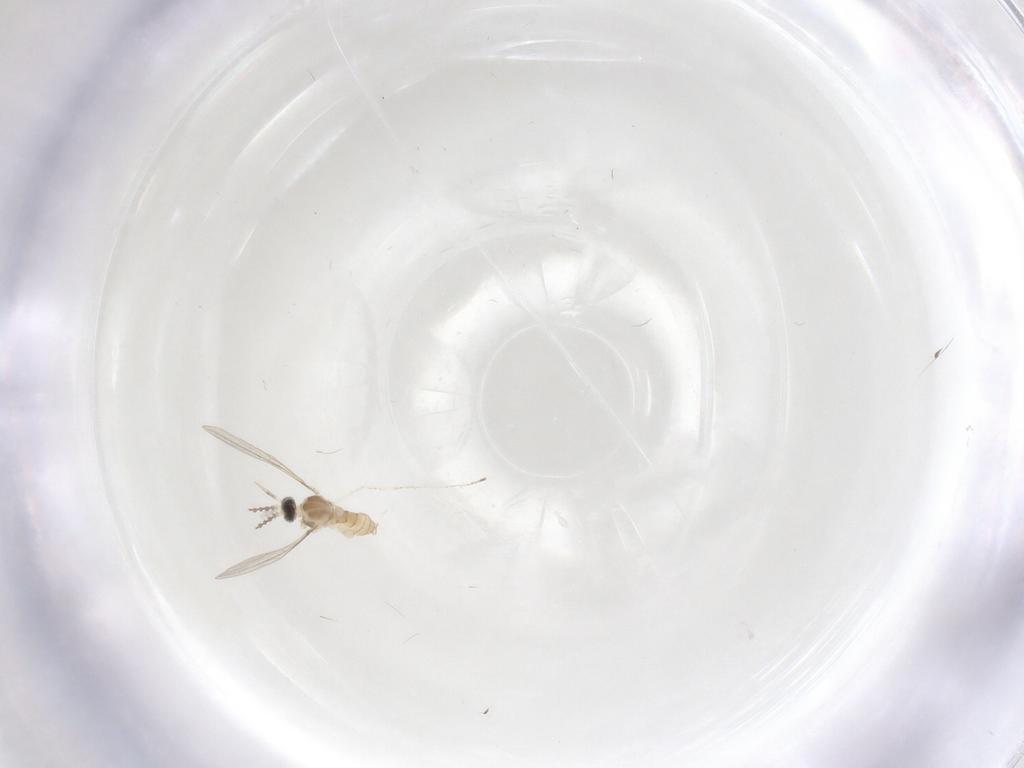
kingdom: Animalia
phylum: Arthropoda
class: Insecta
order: Diptera
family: Cecidomyiidae
